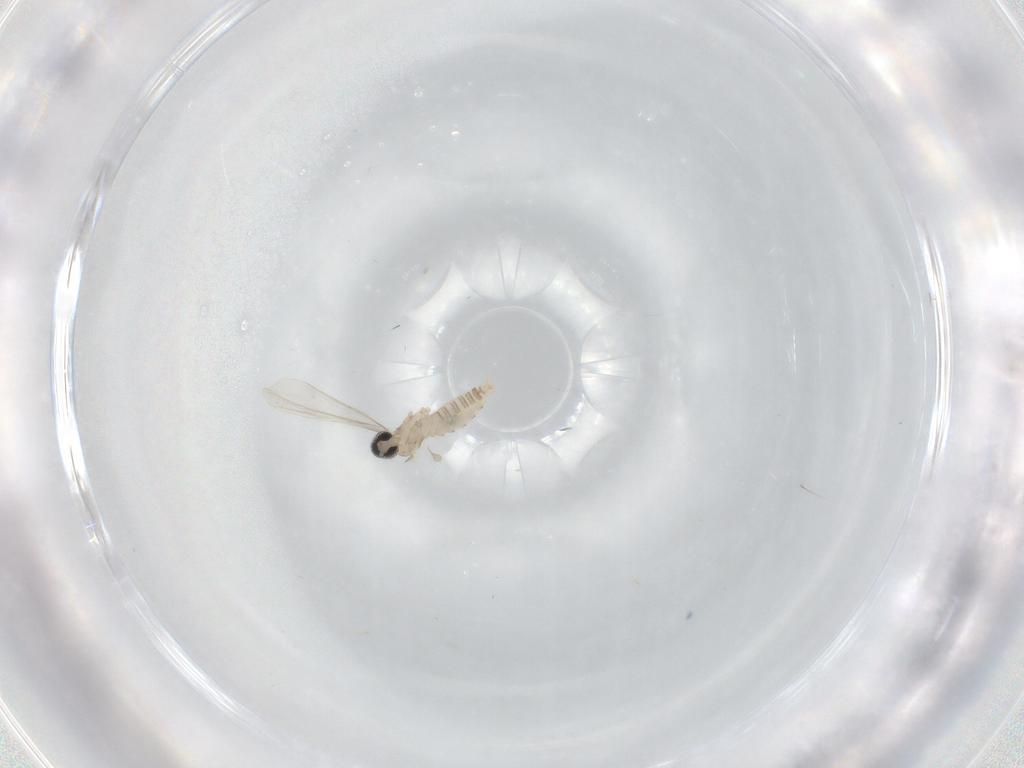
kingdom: Animalia
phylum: Arthropoda
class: Insecta
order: Diptera
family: Cecidomyiidae
